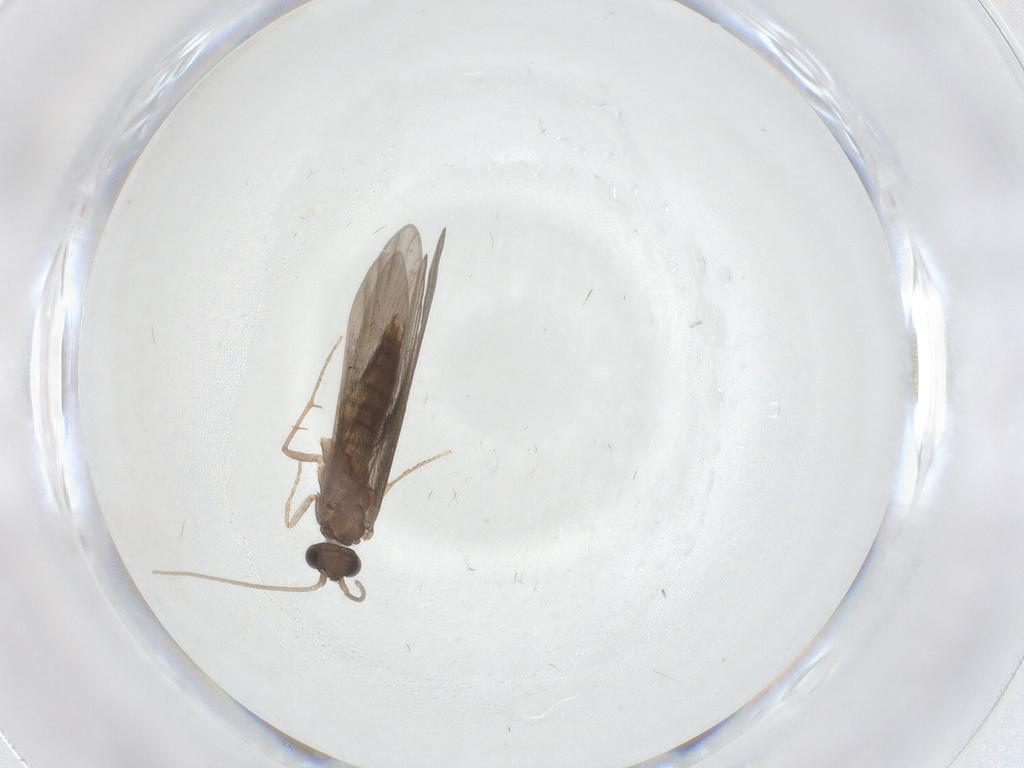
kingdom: Animalia
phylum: Arthropoda
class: Insecta
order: Trichoptera
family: Xiphocentronidae
